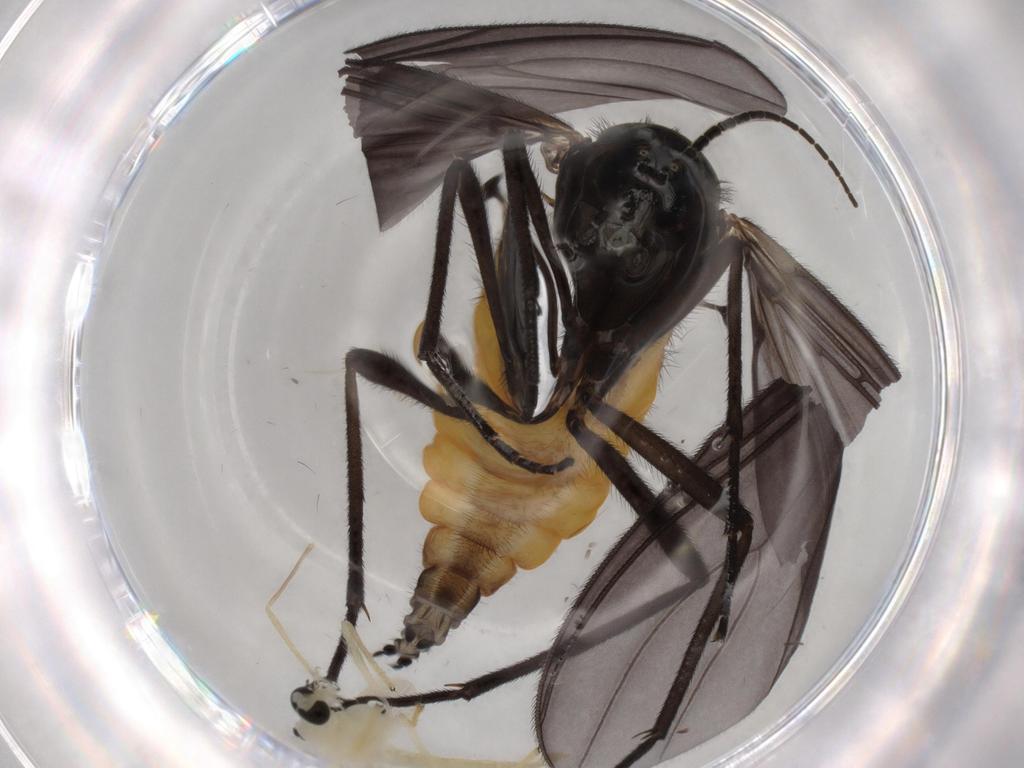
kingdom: Animalia
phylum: Arthropoda
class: Insecta
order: Diptera
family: Chironomidae
